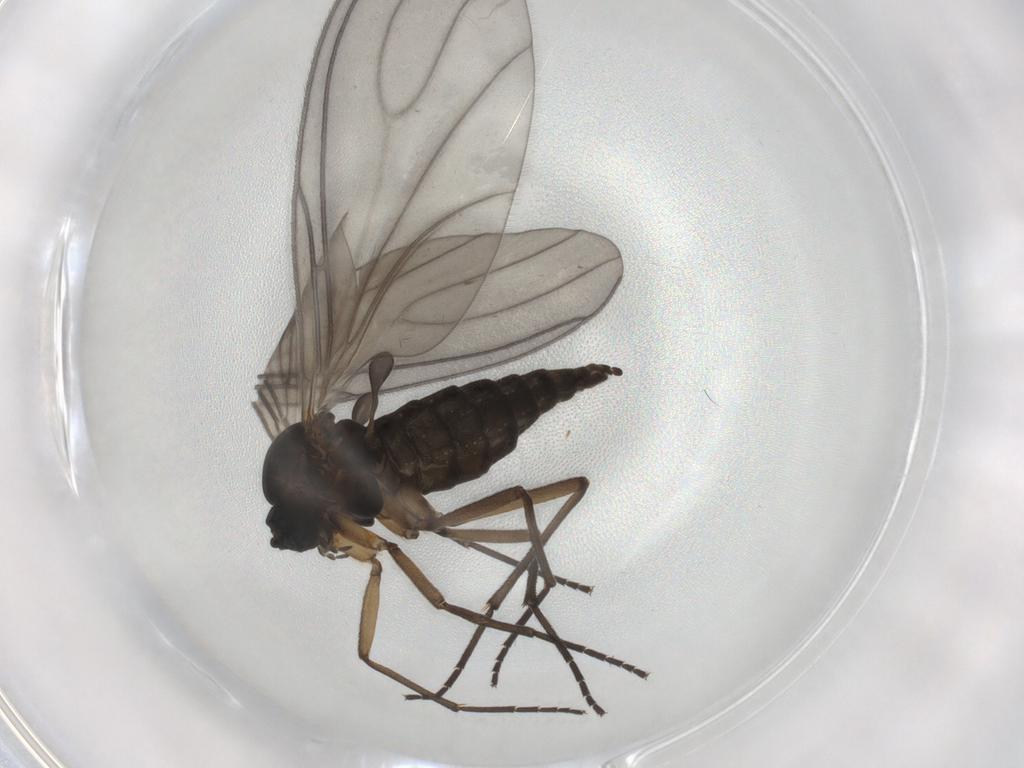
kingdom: Animalia
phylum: Arthropoda
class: Insecta
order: Diptera
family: Sciaridae
